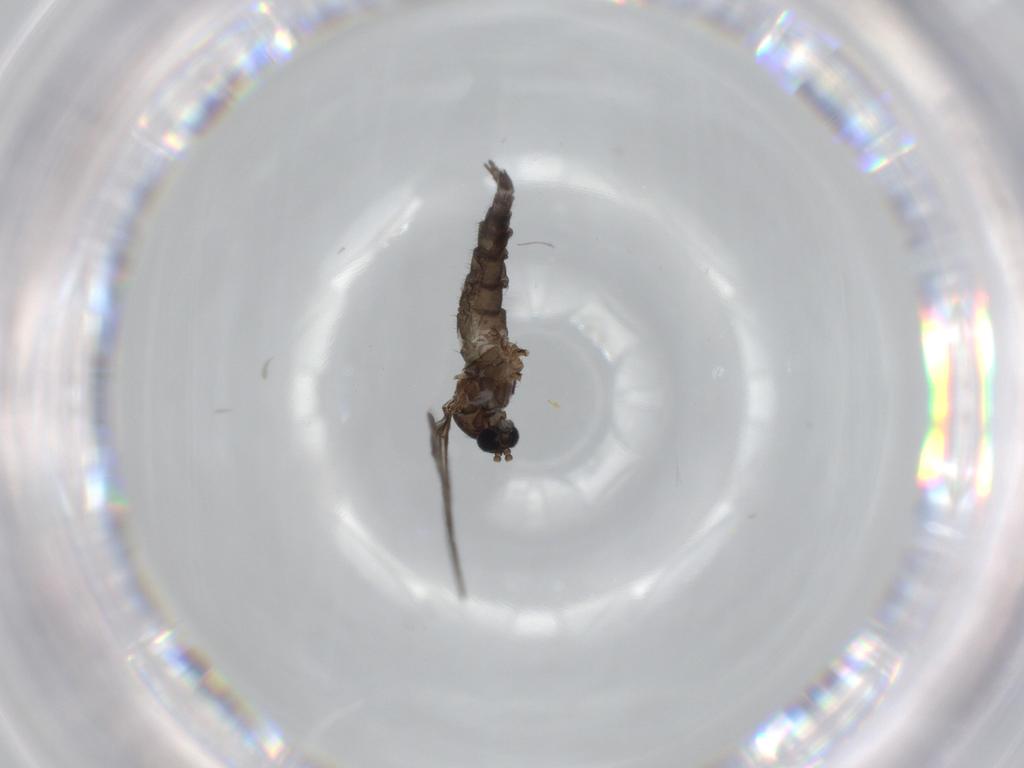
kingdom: Animalia
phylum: Arthropoda
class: Insecta
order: Diptera
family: Sciaridae
